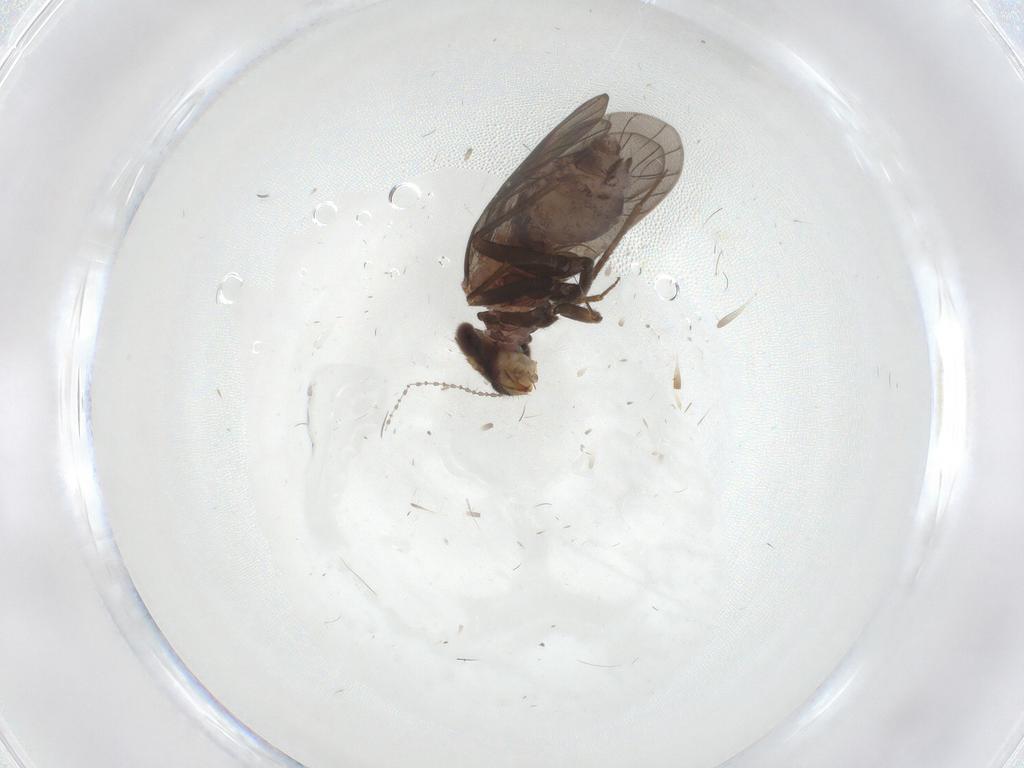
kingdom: Animalia
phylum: Arthropoda
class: Insecta
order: Psocodea
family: Lepidopsocidae
